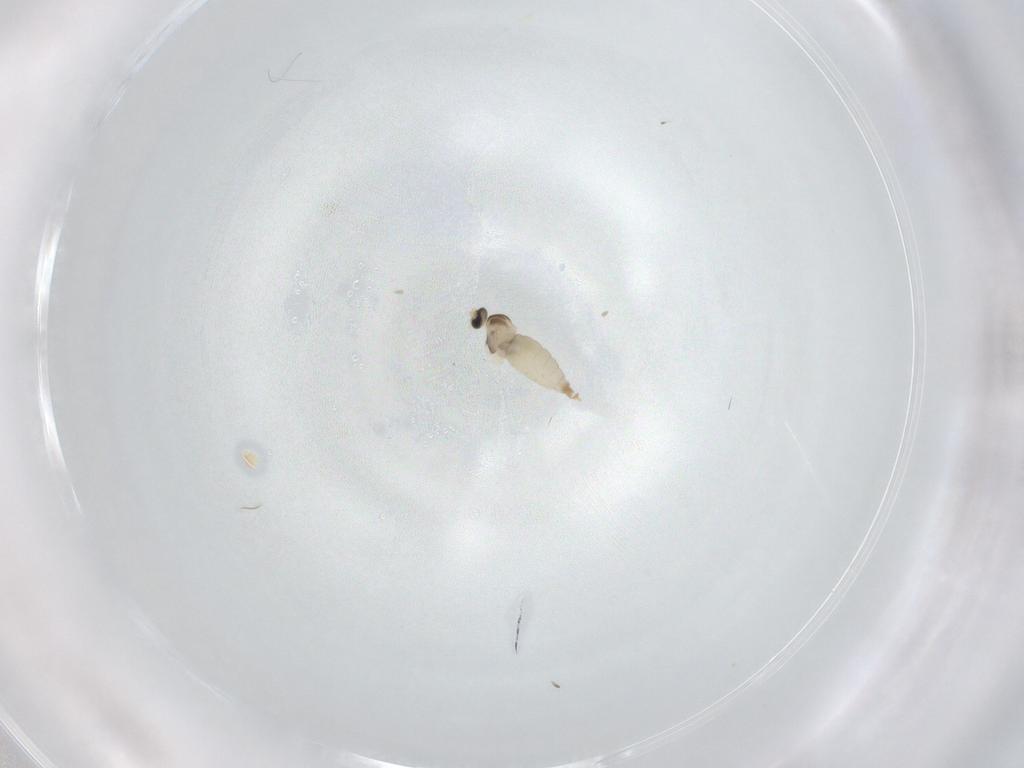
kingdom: Animalia
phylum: Arthropoda
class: Insecta
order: Diptera
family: Cecidomyiidae
